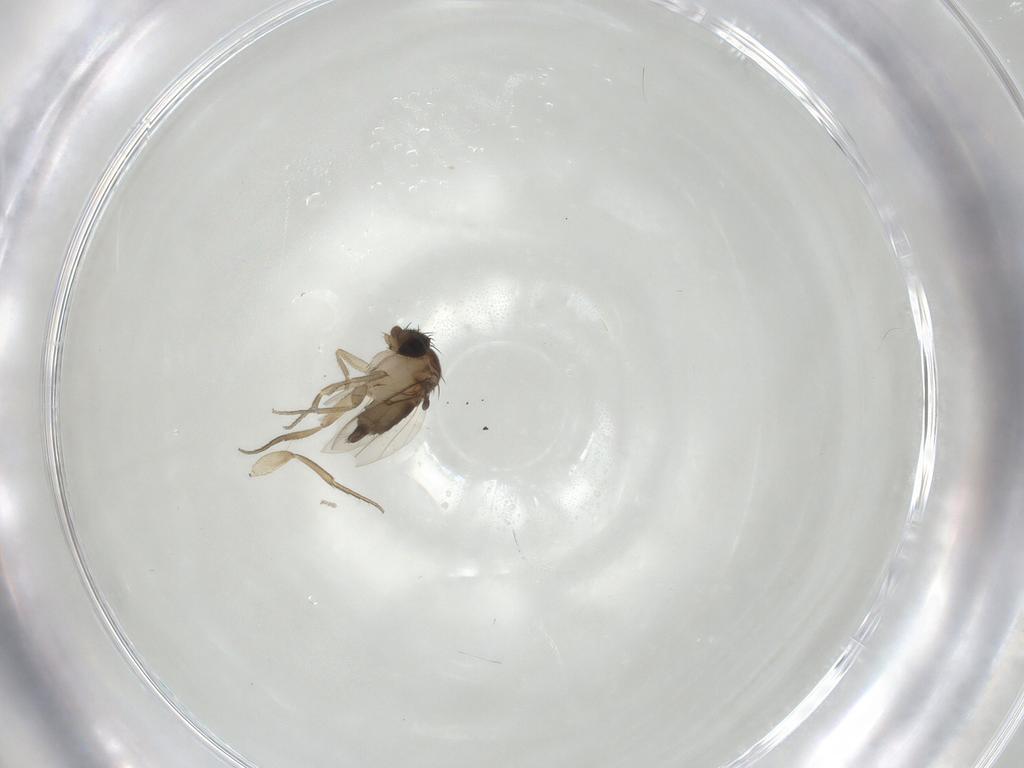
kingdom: Animalia
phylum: Arthropoda
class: Insecta
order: Diptera
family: Phoridae
